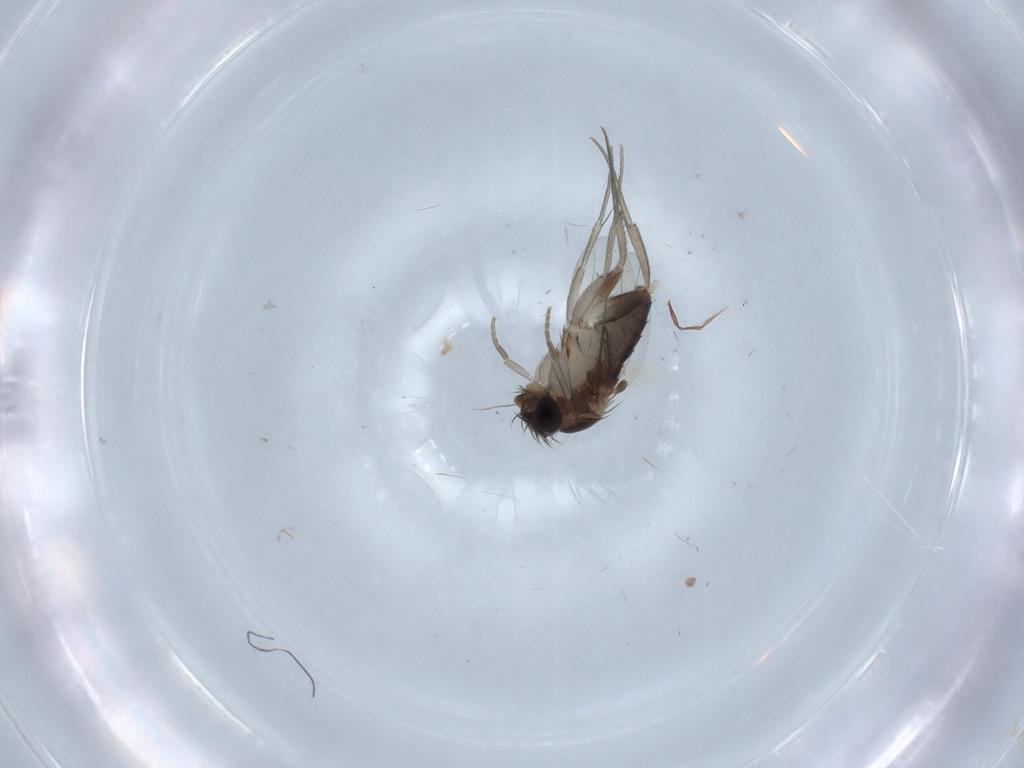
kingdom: Animalia
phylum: Arthropoda
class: Insecta
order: Diptera
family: Phoridae
